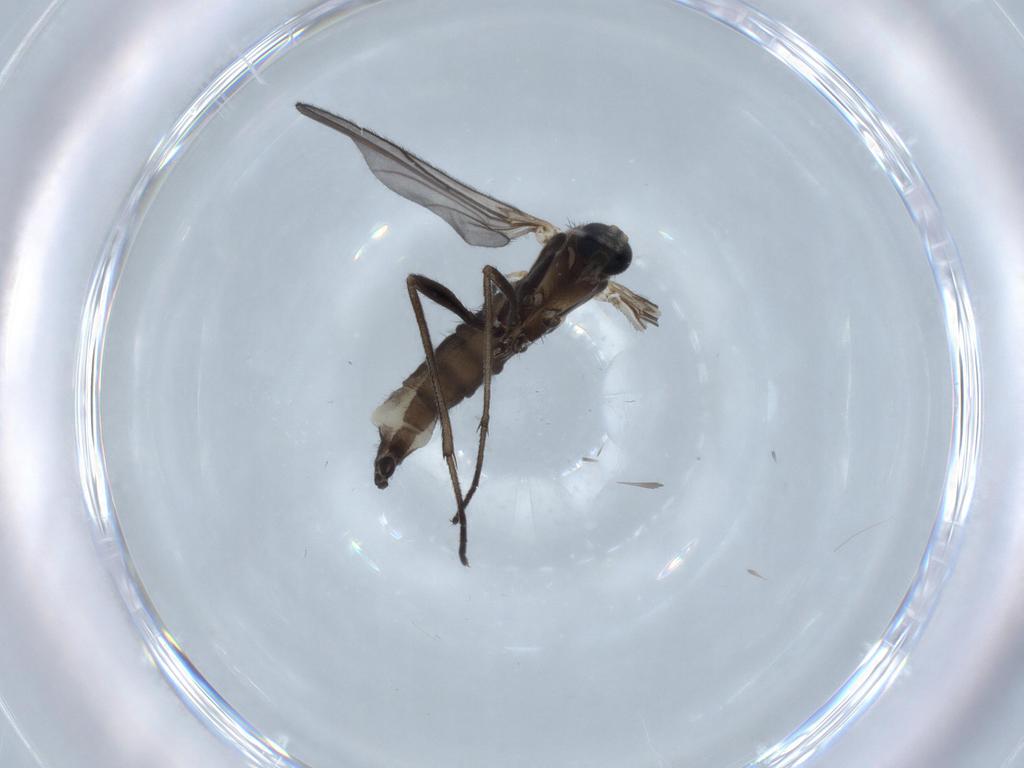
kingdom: Animalia
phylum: Arthropoda
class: Insecta
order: Diptera
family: Sciaridae
